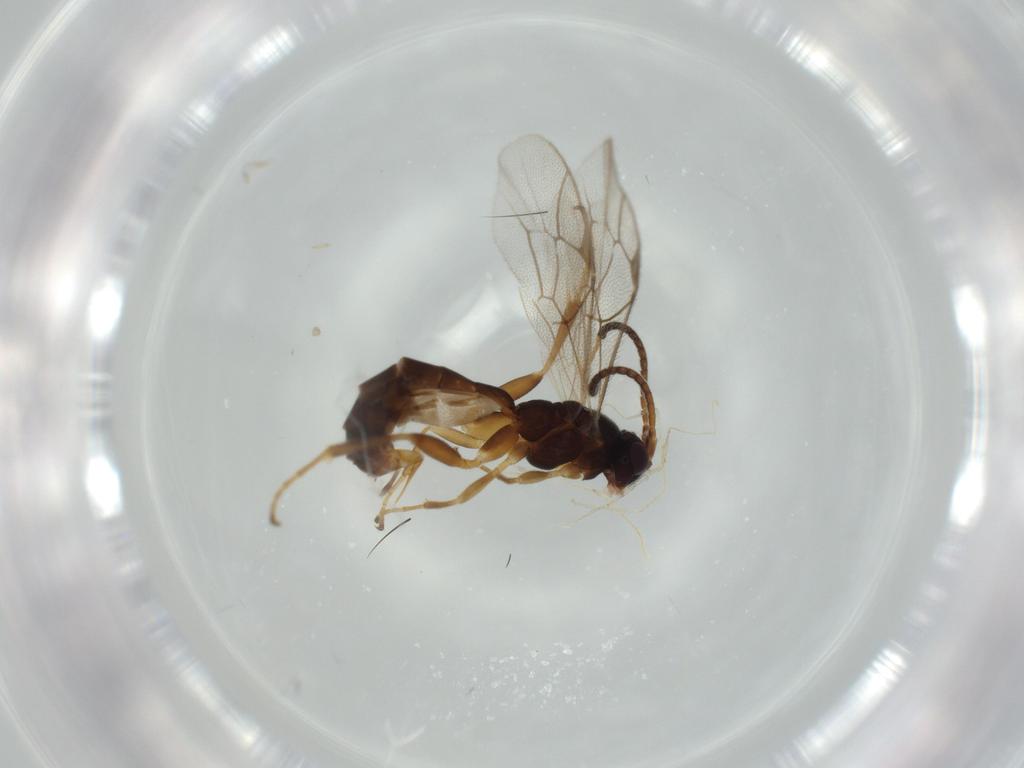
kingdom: Animalia
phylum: Arthropoda
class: Insecta
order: Hymenoptera
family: Ichneumonidae
